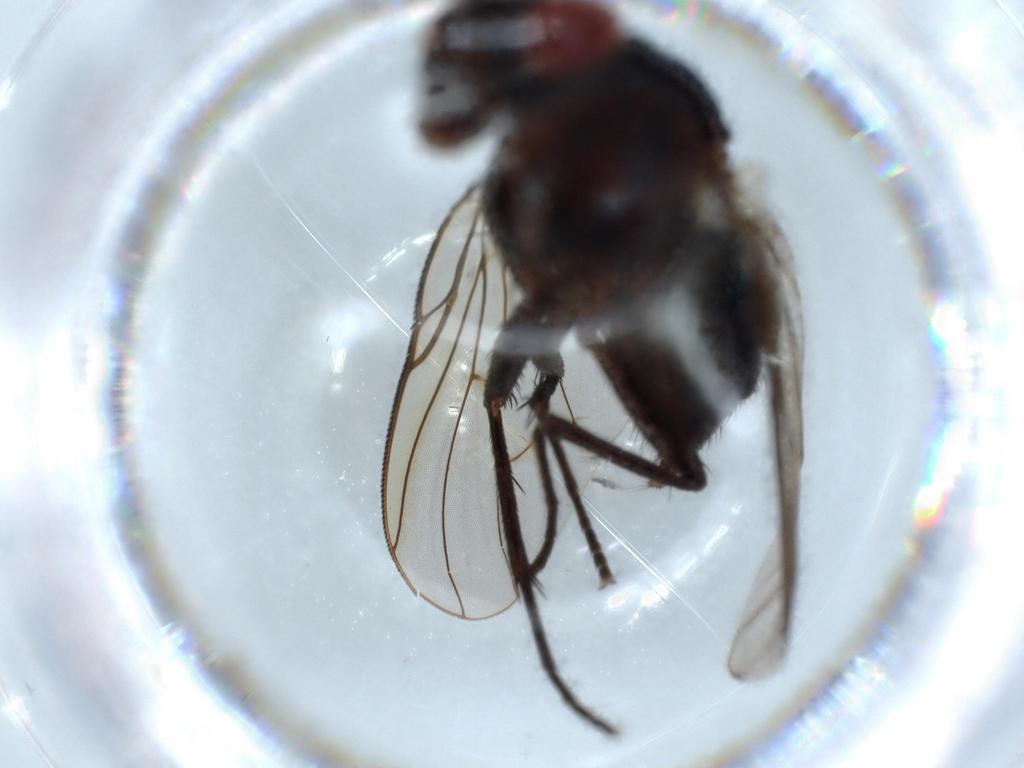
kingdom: Animalia
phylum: Arthropoda
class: Insecta
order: Diptera
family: Muscidae
